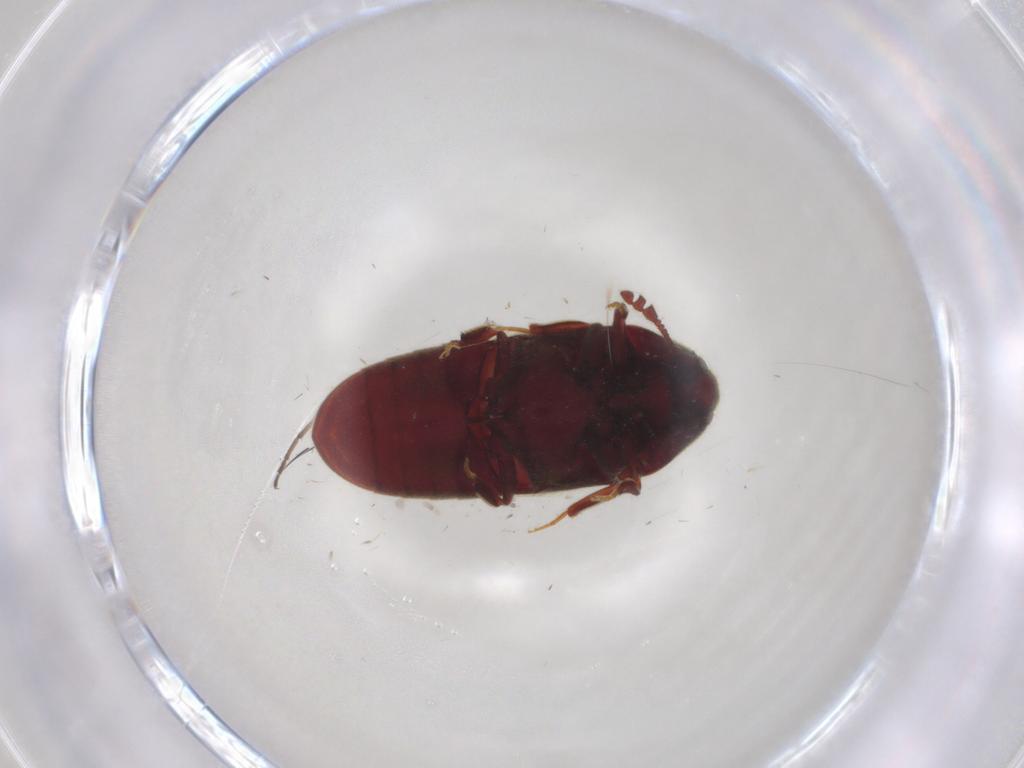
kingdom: Animalia
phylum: Arthropoda
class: Insecta
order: Coleoptera
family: Throscidae
